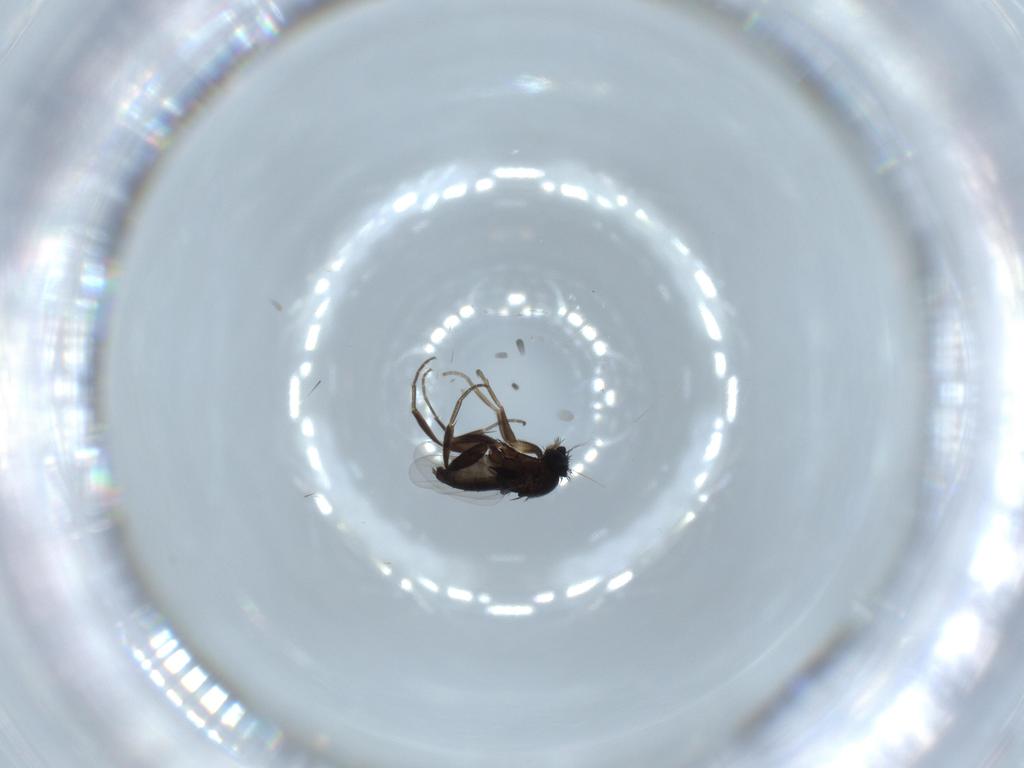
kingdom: Animalia
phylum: Arthropoda
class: Insecta
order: Diptera
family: Phoridae
